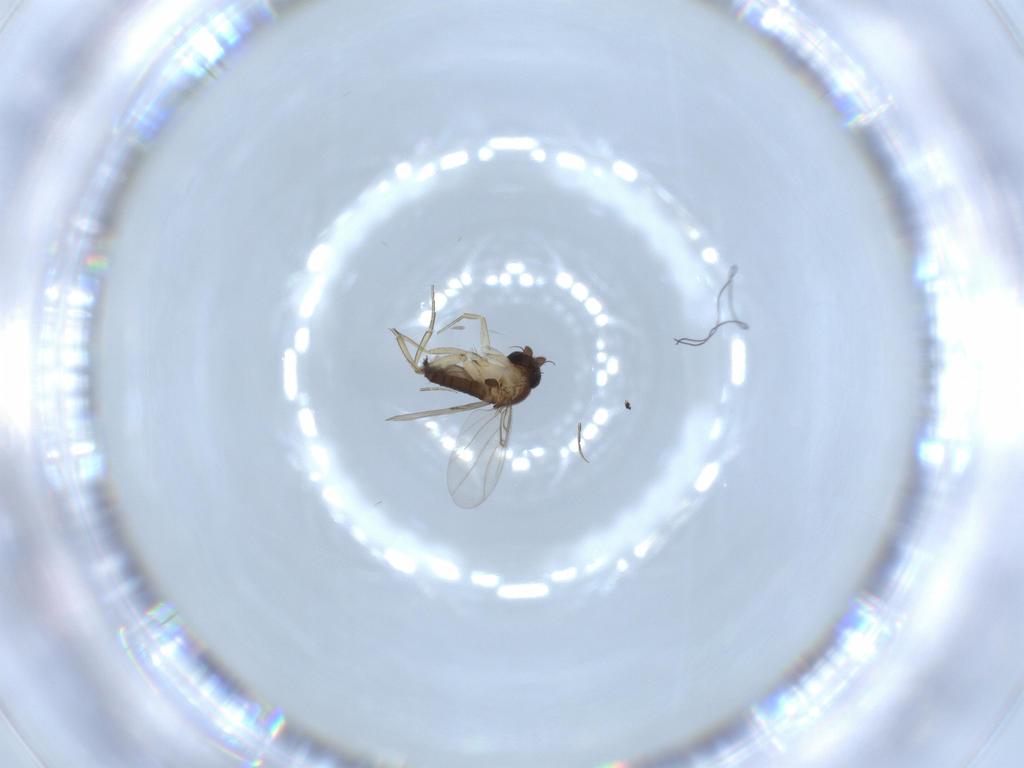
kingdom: Animalia
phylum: Arthropoda
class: Insecta
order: Diptera
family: Phoridae
